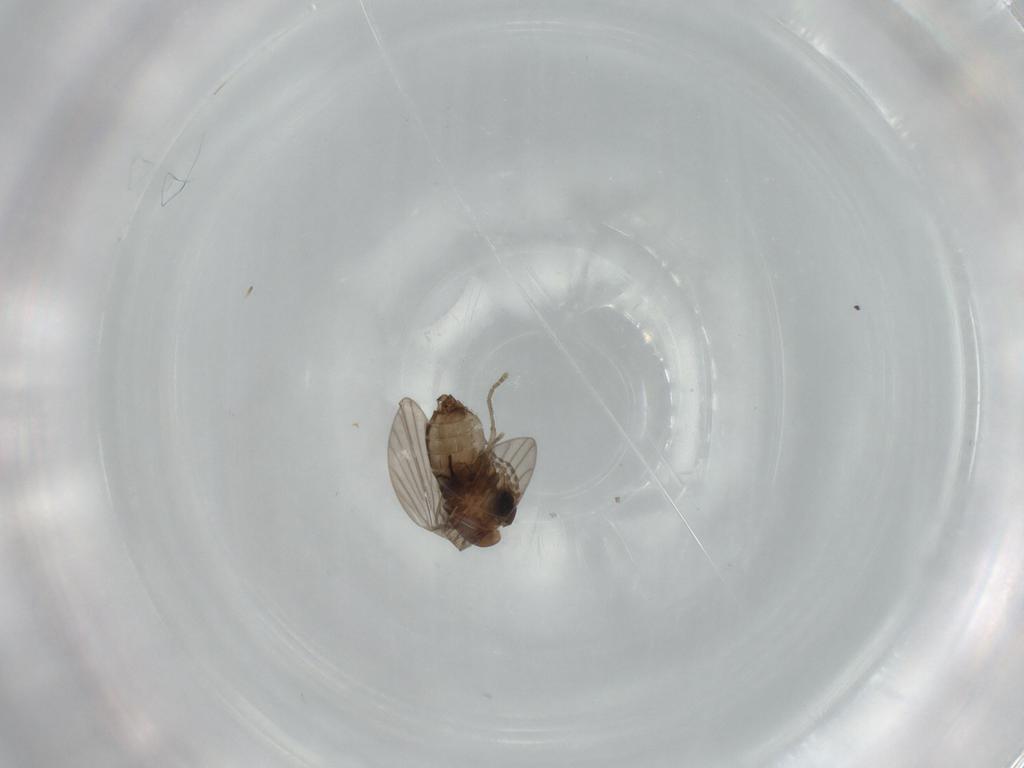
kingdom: Animalia
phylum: Arthropoda
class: Insecta
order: Diptera
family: Psychodidae
